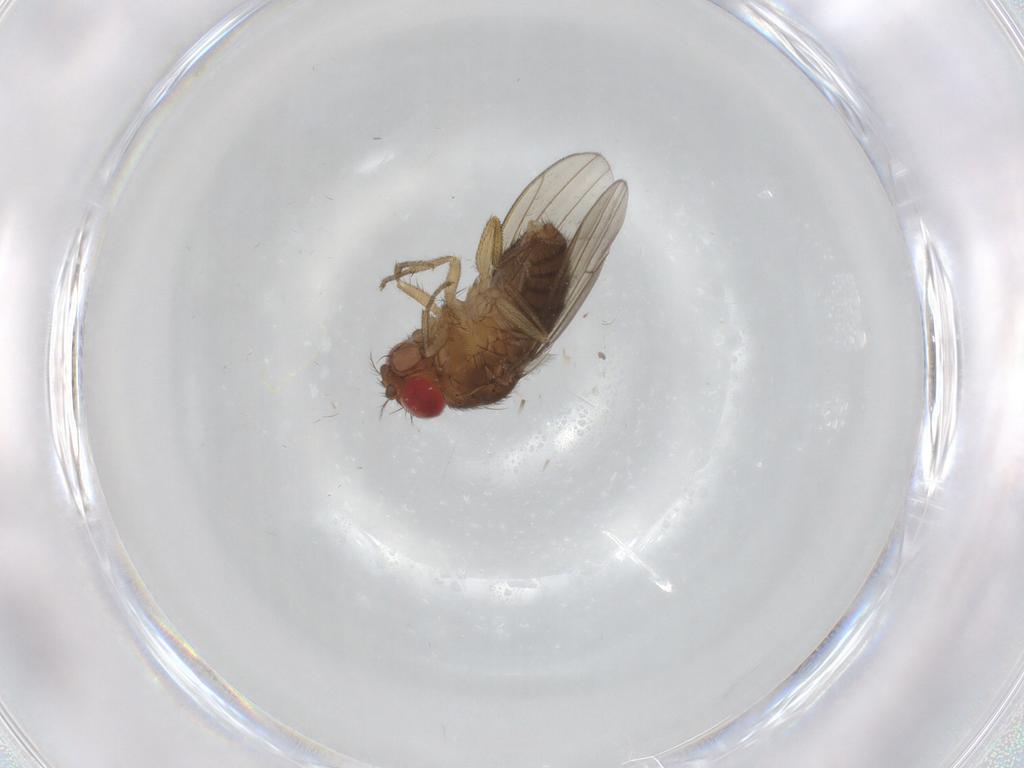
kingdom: Animalia
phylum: Arthropoda
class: Insecta
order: Diptera
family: Drosophilidae
